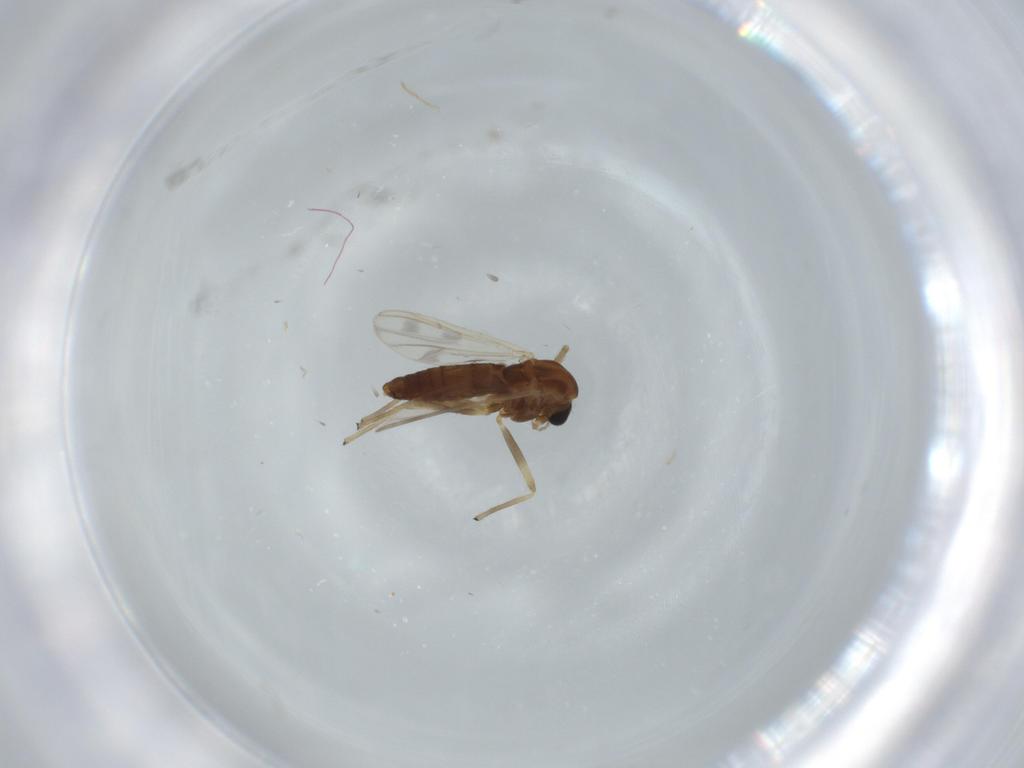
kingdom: Animalia
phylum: Arthropoda
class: Insecta
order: Diptera
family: Chironomidae
